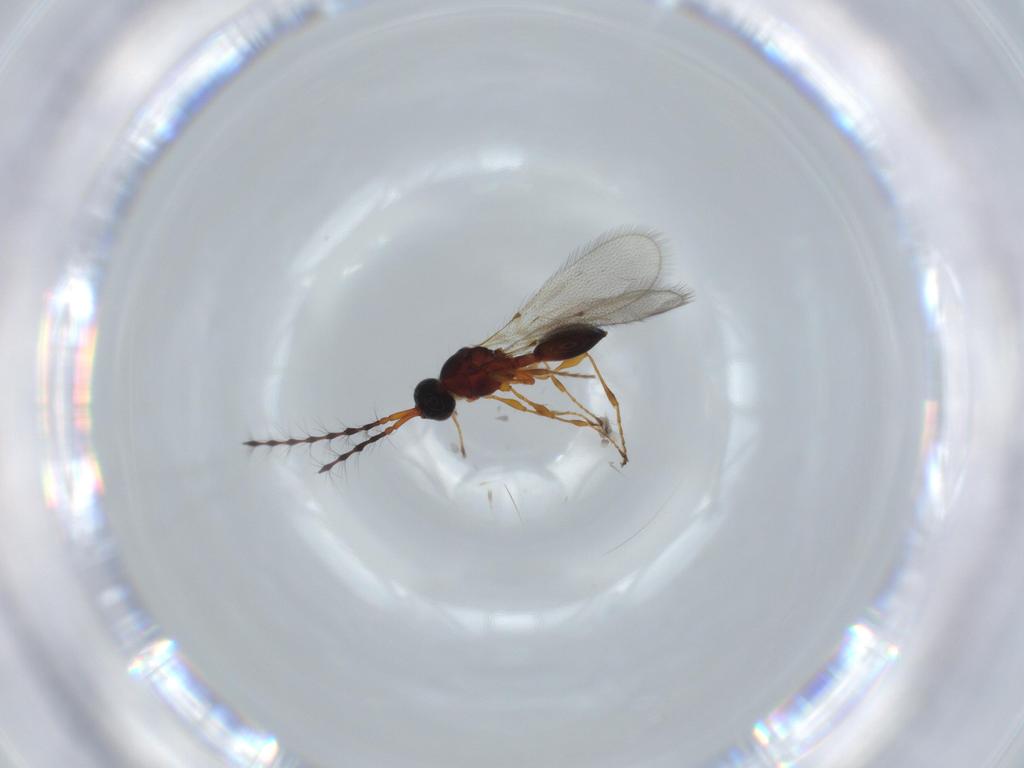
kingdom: Animalia
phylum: Arthropoda
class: Insecta
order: Hymenoptera
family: Diapriidae
